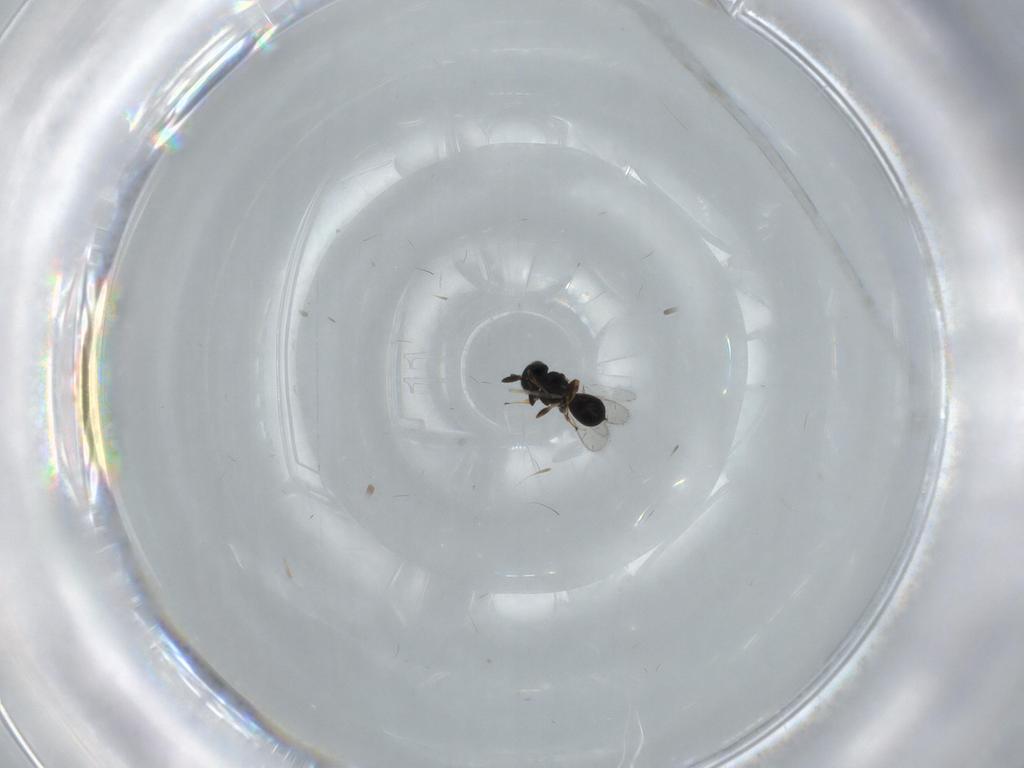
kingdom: Animalia
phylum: Arthropoda
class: Insecta
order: Hymenoptera
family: Scelionidae
